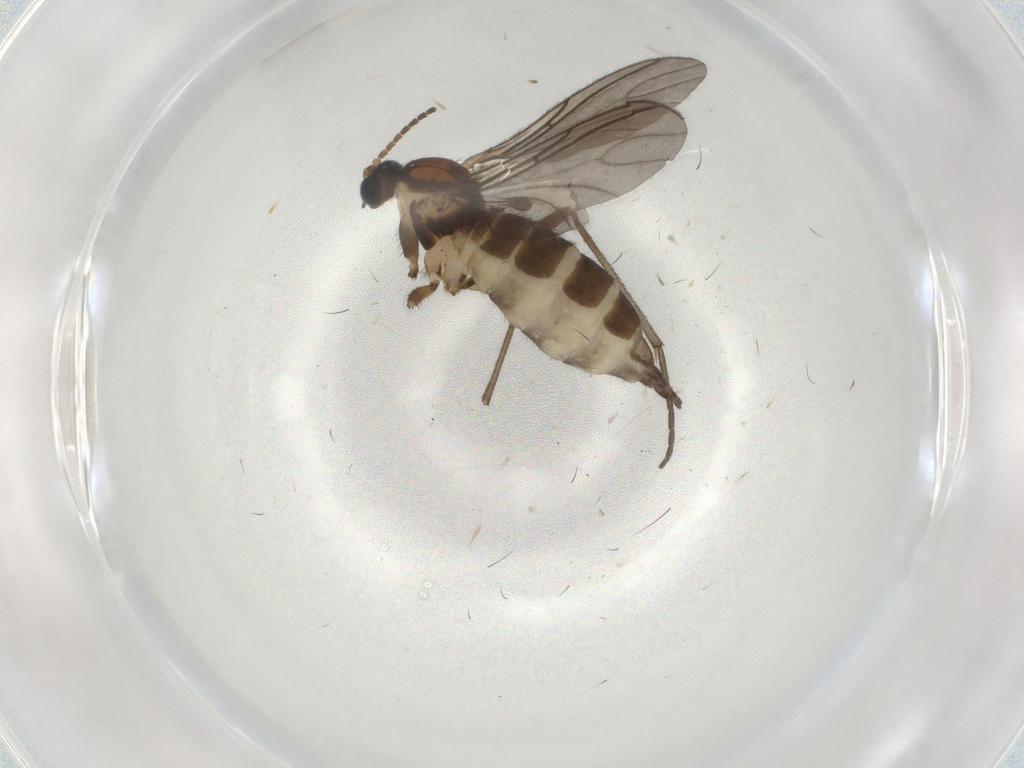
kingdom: Animalia
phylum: Arthropoda
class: Insecta
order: Diptera
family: Sciaridae
